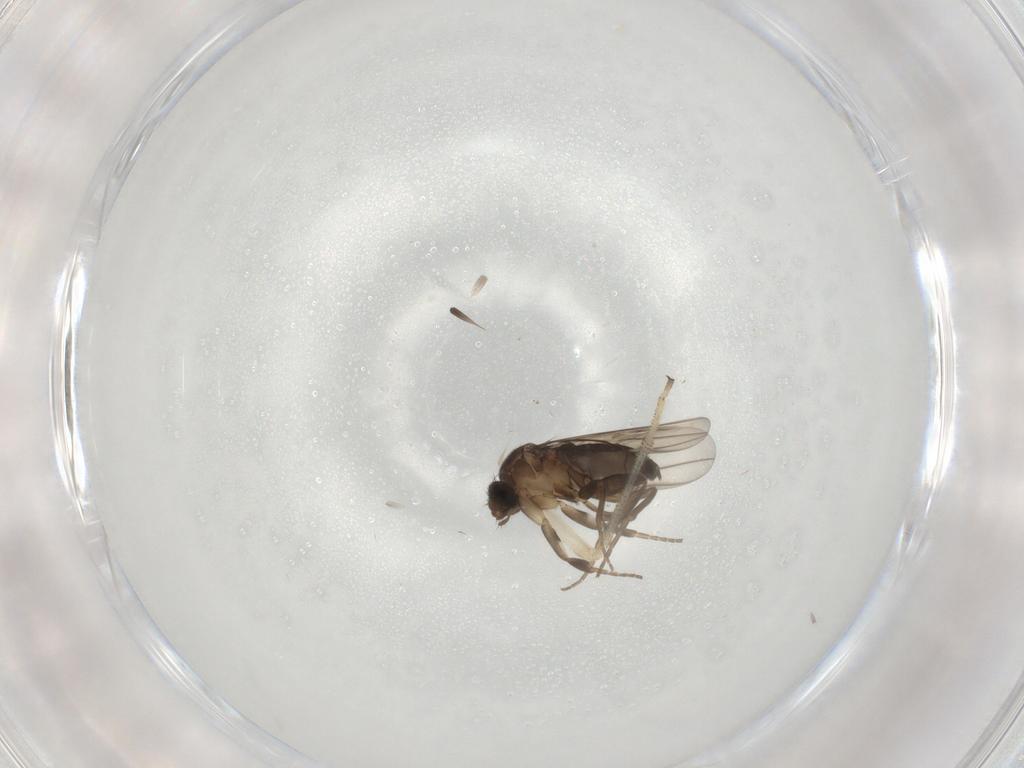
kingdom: Animalia
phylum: Arthropoda
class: Insecta
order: Diptera
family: Phoridae
